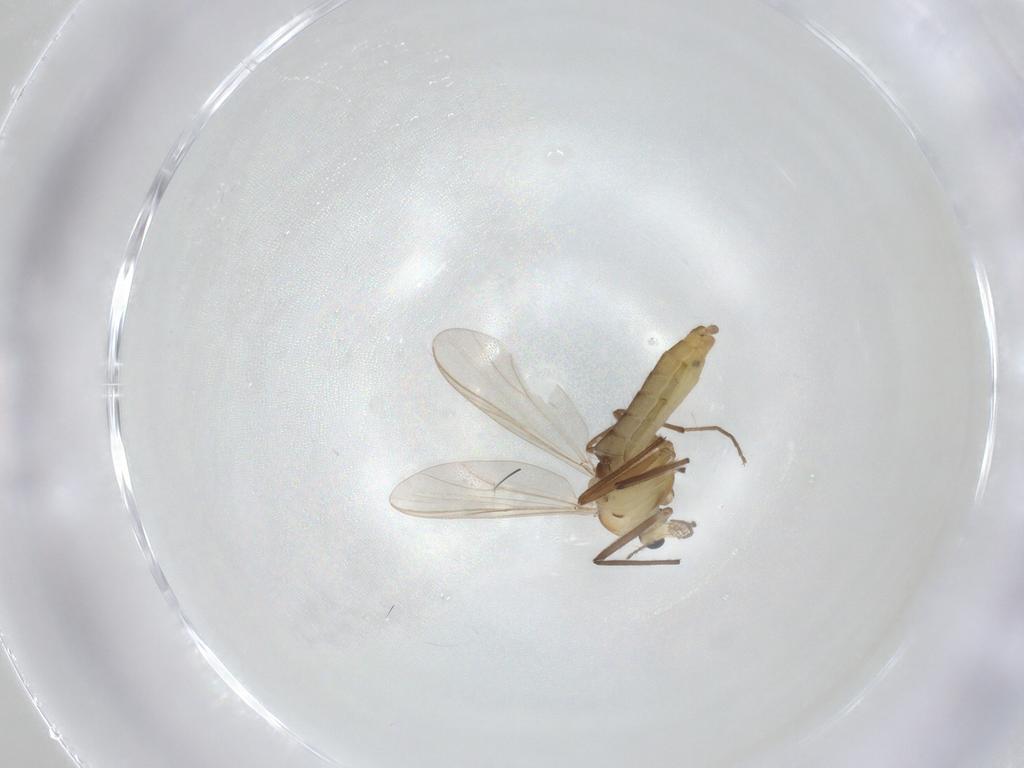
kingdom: Animalia
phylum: Arthropoda
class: Insecta
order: Diptera
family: Chironomidae
